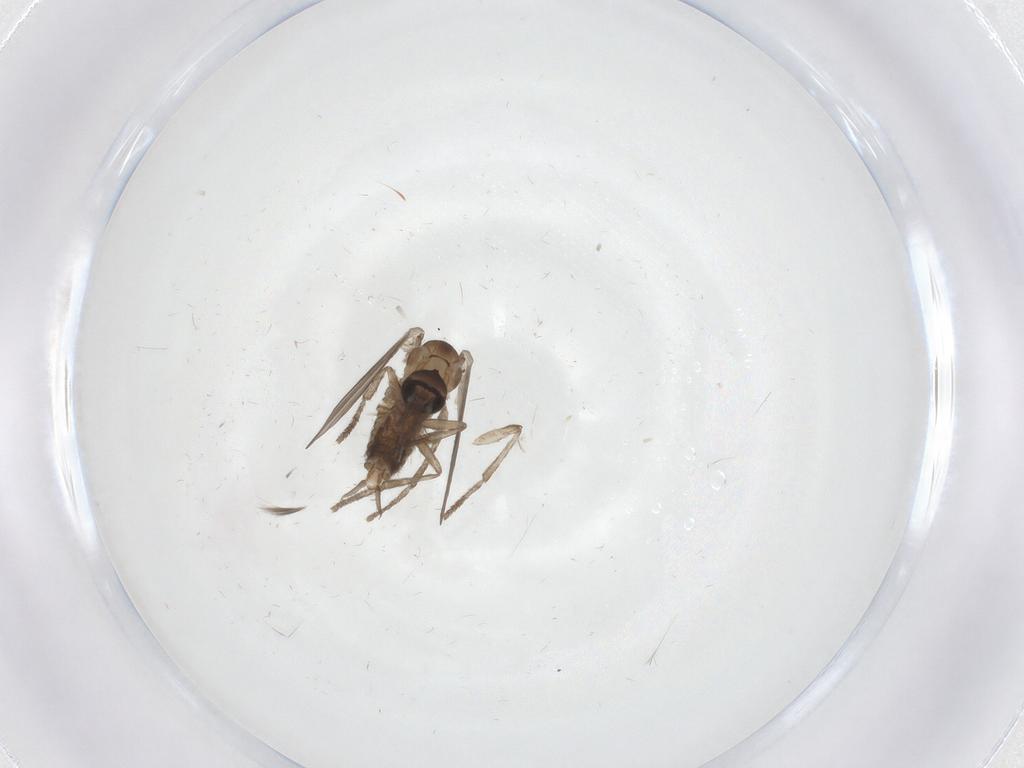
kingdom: Animalia
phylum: Arthropoda
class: Insecta
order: Diptera
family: Psychodidae
